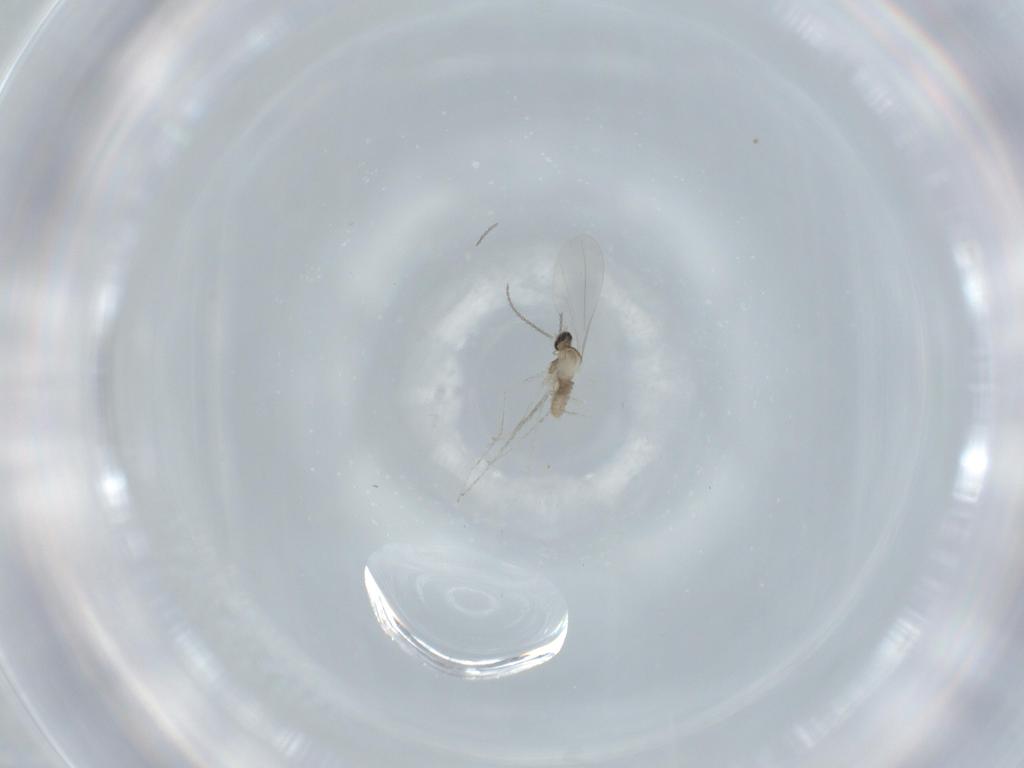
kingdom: Animalia
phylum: Arthropoda
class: Insecta
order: Diptera
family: Cecidomyiidae
